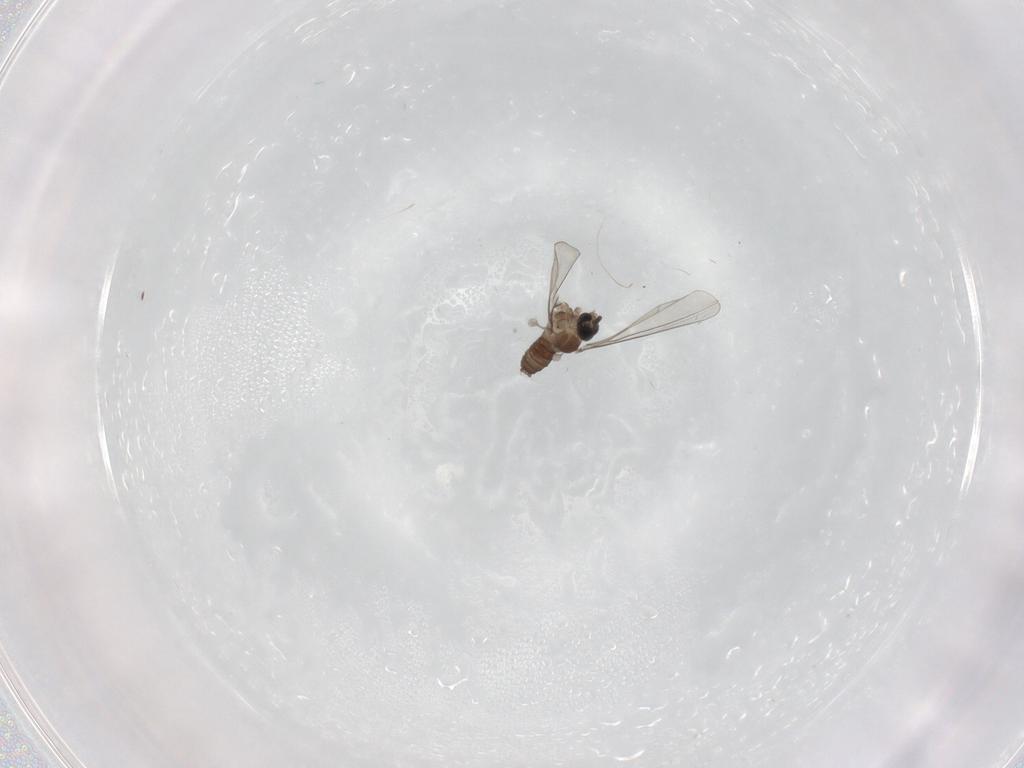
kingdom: Animalia
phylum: Arthropoda
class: Insecta
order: Diptera
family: Cecidomyiidae
